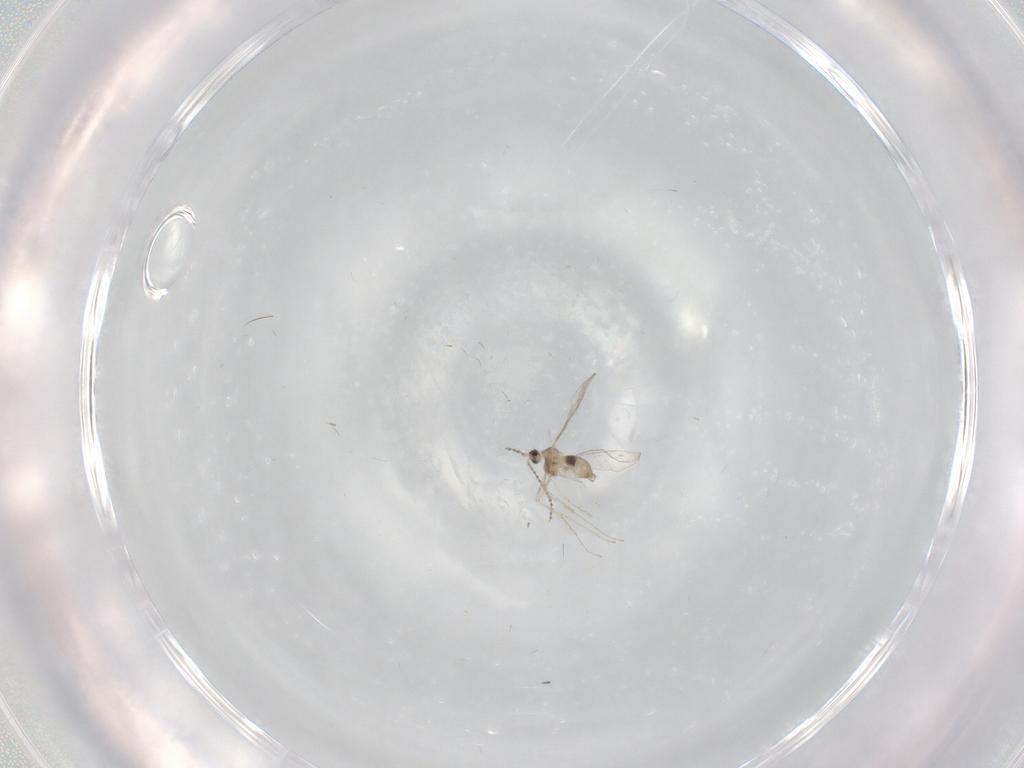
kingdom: Animalia
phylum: Arthropoda
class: Insecta
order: Diptera
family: Cecidomyiidae
